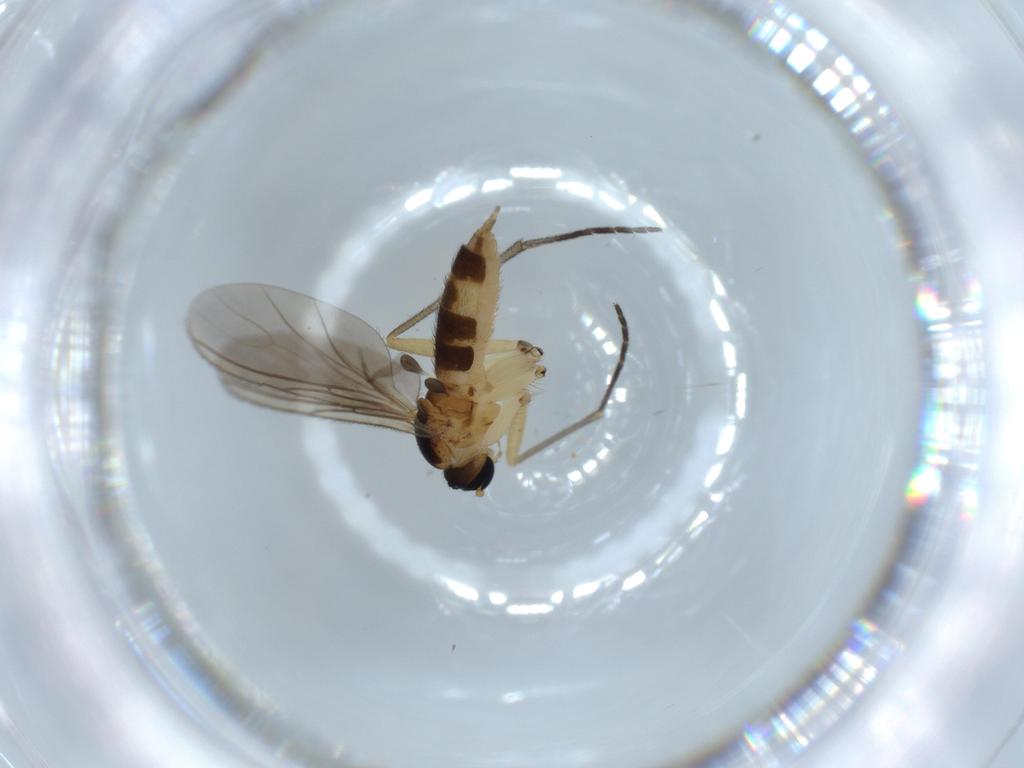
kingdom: Animalia
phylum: Arthropoda
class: Insecta
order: Diptera
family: Sciaridae
